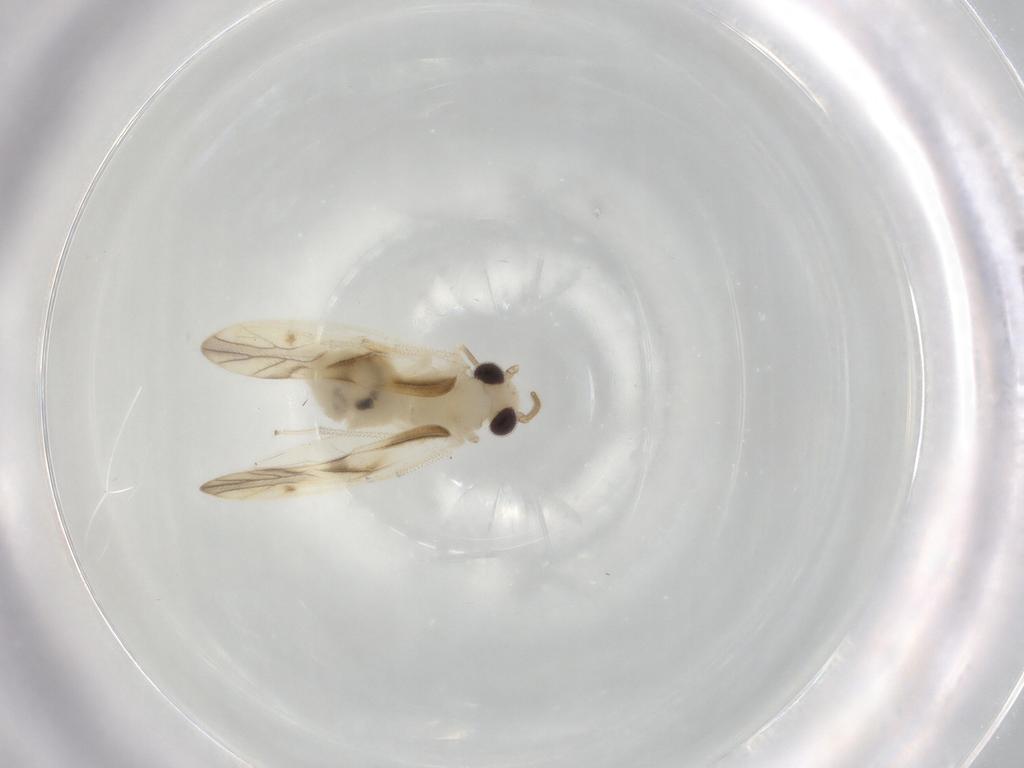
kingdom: Animalia
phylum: Arthropoda
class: Insecta
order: Psocodea
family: Caeciliusidae
